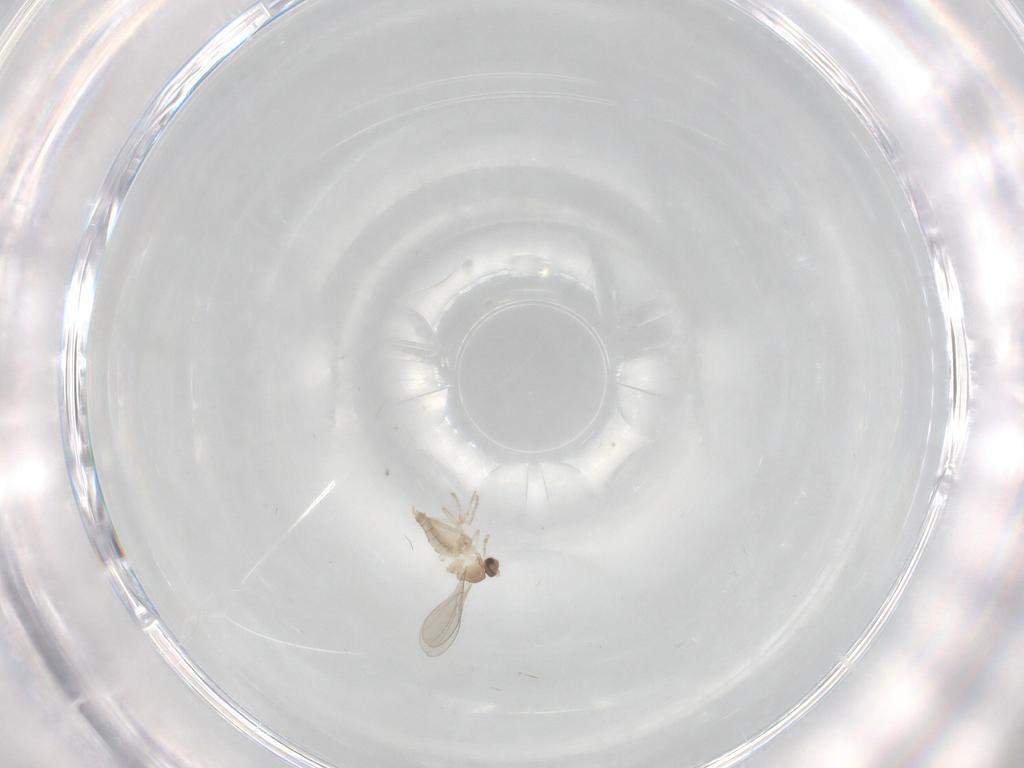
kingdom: Animalia
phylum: Arthropoda
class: Insecta
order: Diptera
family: Cecidomyiidae
